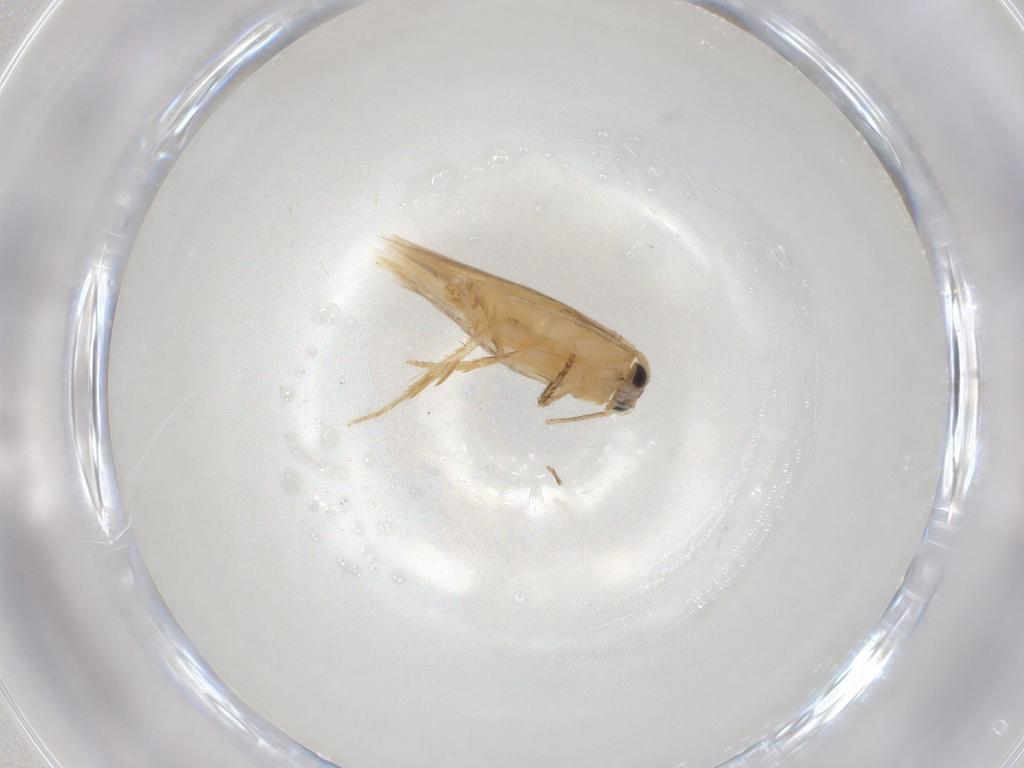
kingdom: Animalia
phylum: Arthropoda
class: Insecta
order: Lepidoptera
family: Nepticulidae
